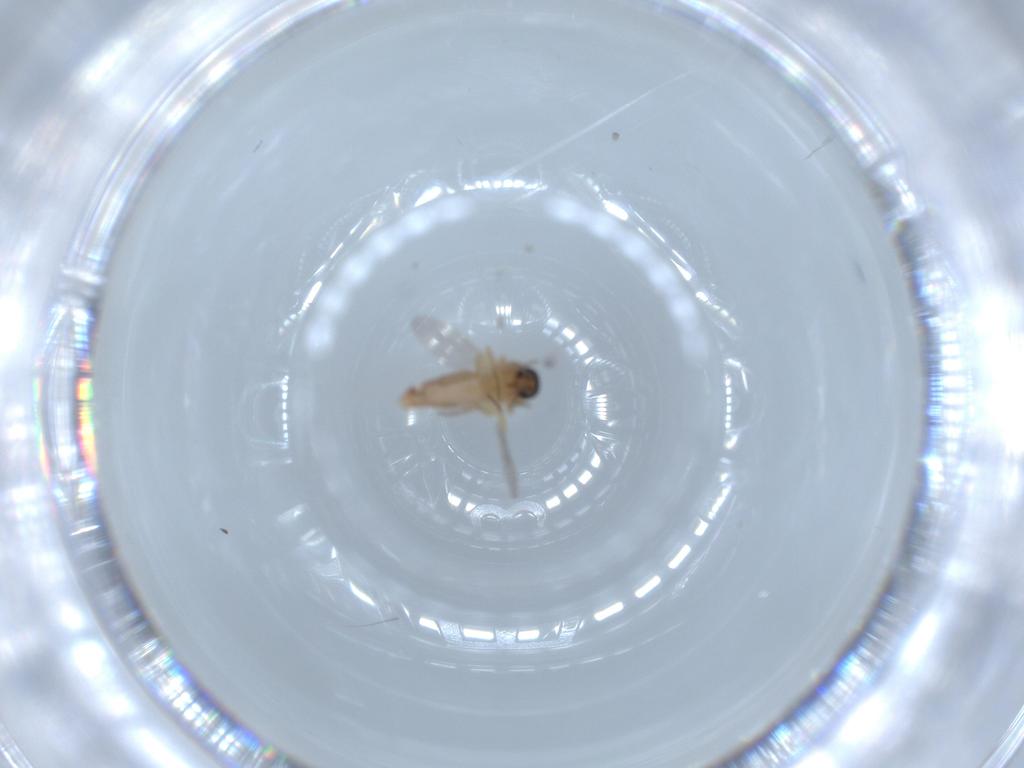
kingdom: Animalia
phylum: Arthropoda
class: Insecta
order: Diptera
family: Ceratopogonidae
